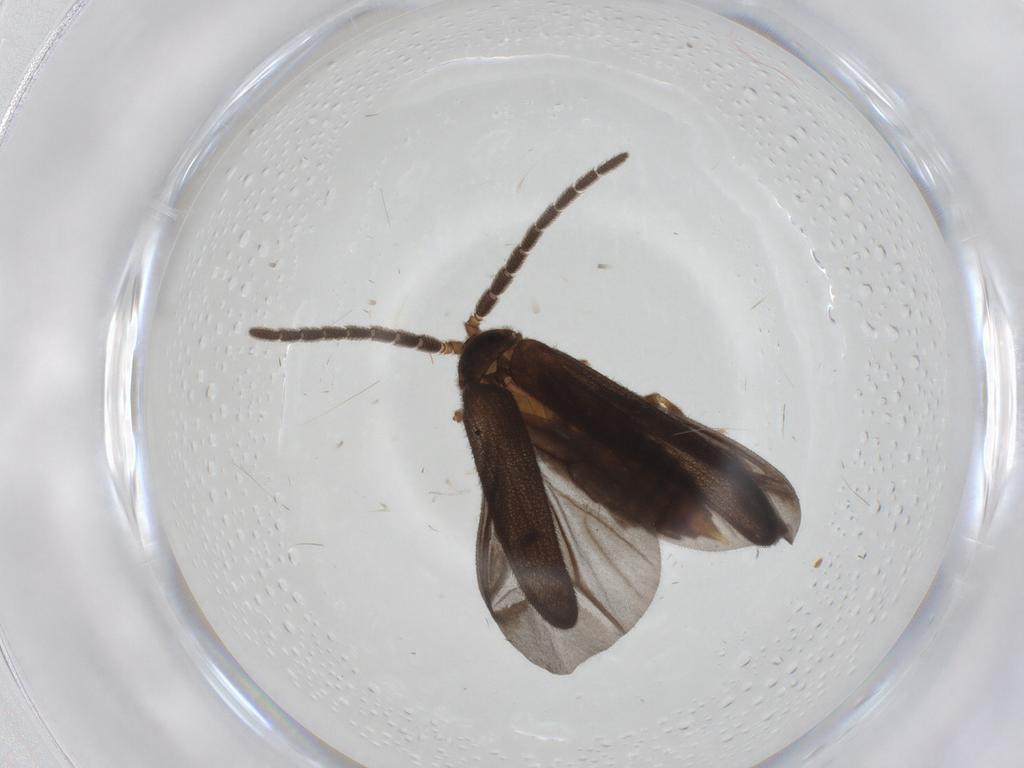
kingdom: Animalia
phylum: Arthropoda
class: Insecta
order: Coleoptera
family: Lycidae
